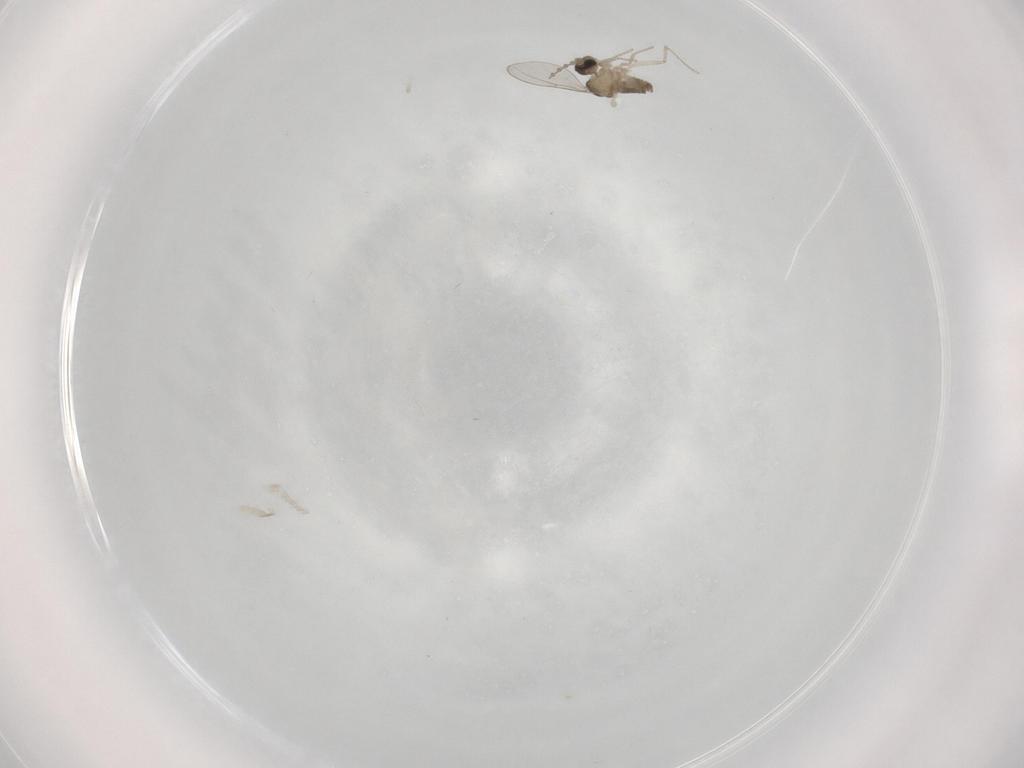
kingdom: Animalia
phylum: Arthropoda
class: Insecta
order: Diptera
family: Cecidomyiidae
